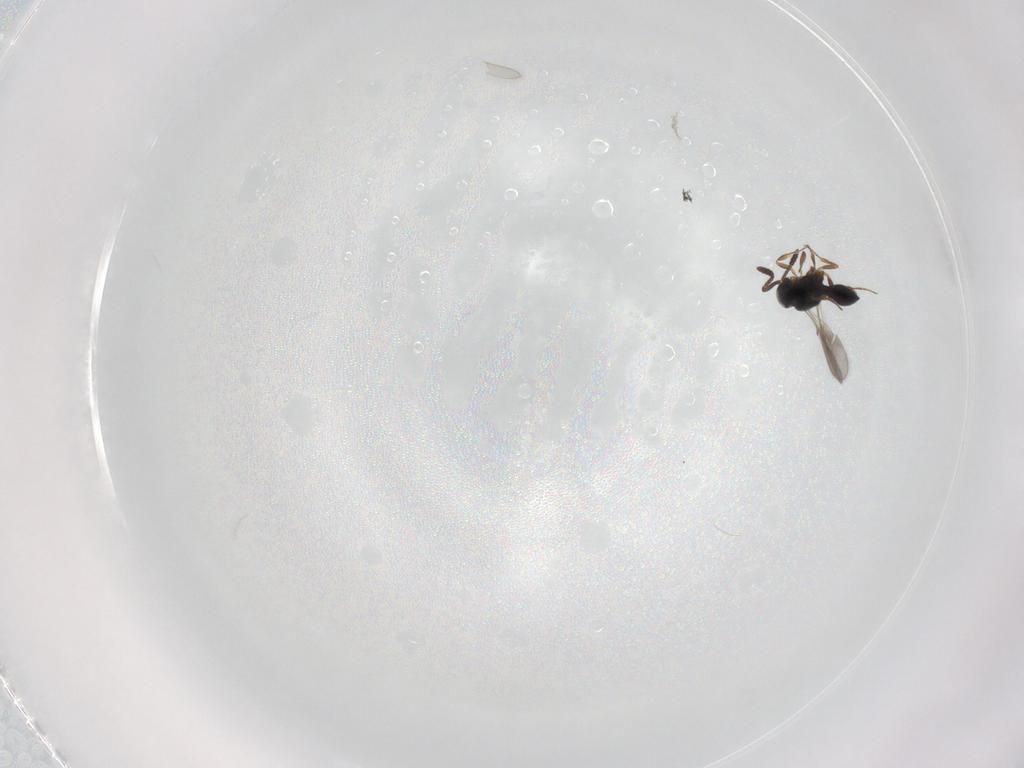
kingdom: Animalia
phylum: Arthropoda
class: Insecta
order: Hymenoptera
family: Scelionidae
